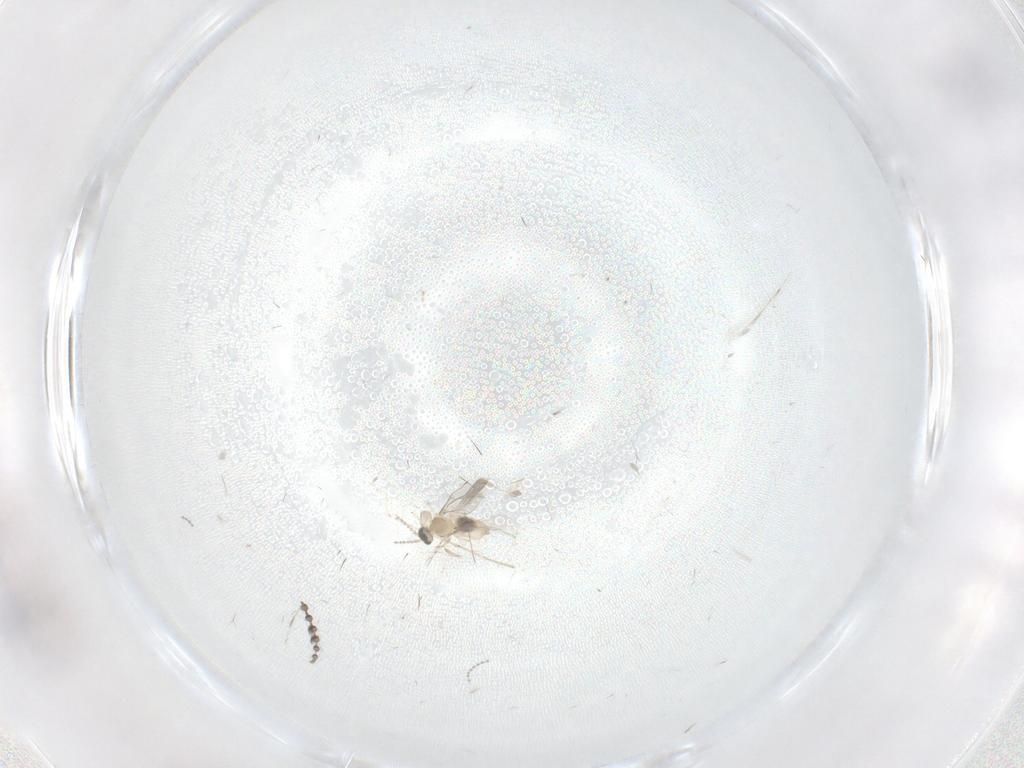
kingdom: Animalia
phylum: Arthropoda
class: Insecta
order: Diptera
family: Cecidomyiidae
